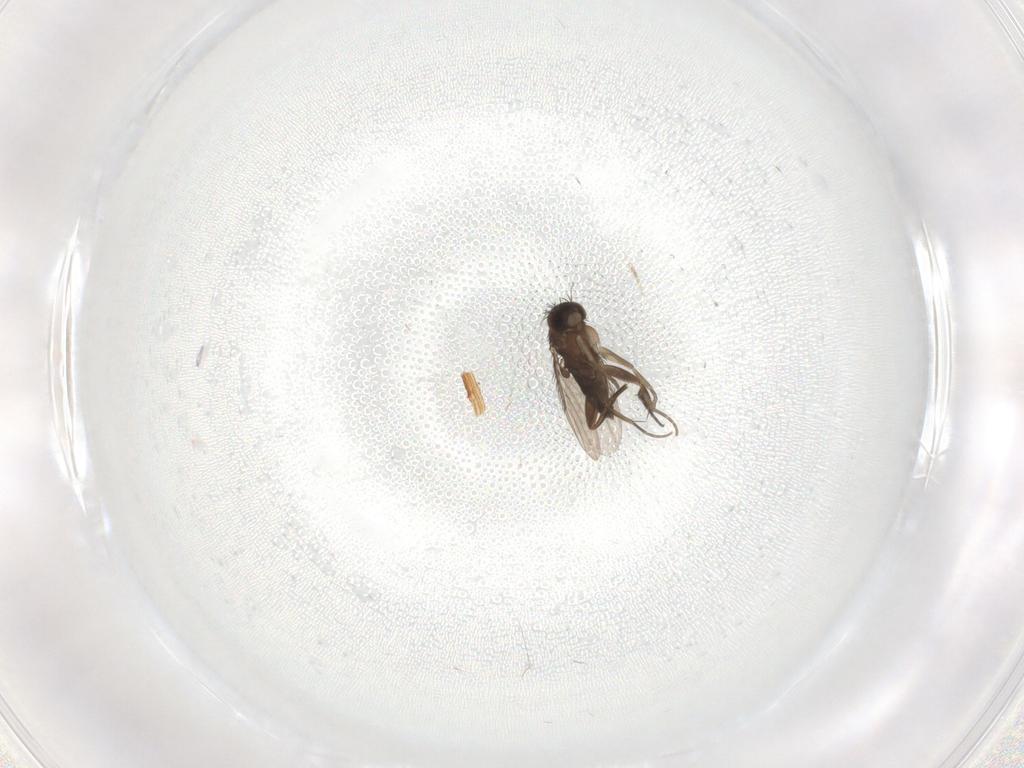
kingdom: Animalia
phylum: Arthropoda
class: Insecta
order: Diptera
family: Phoridae
